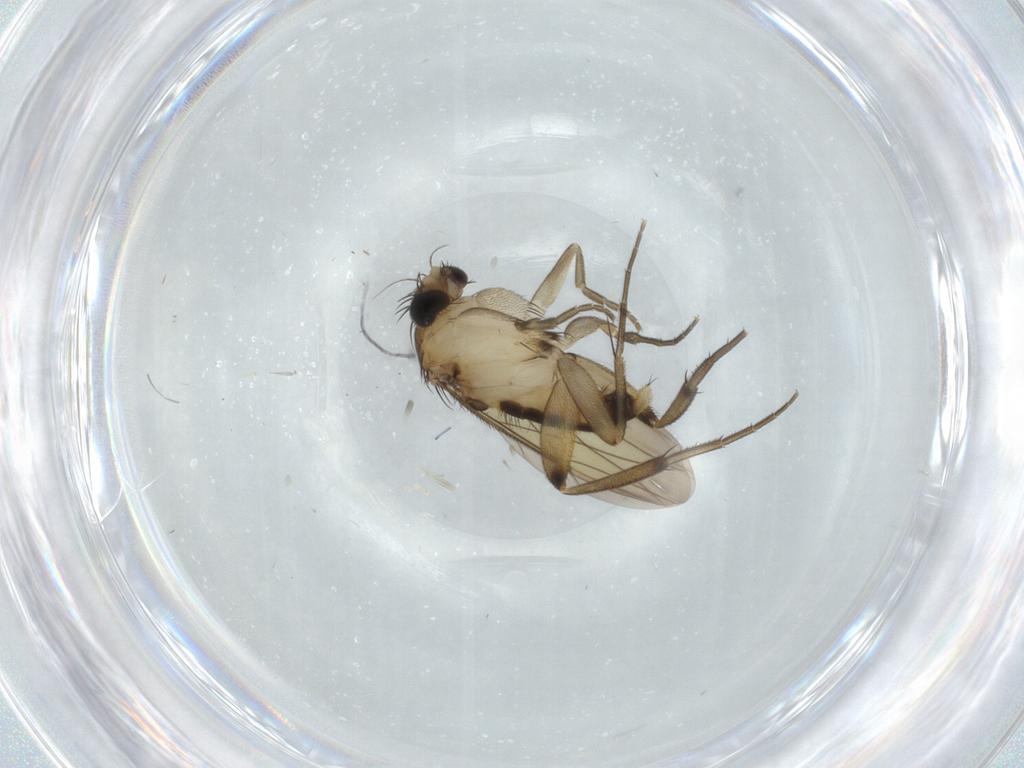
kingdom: Animalia
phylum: Arthropoda
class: Insecta
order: Diptera
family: Phoridae
